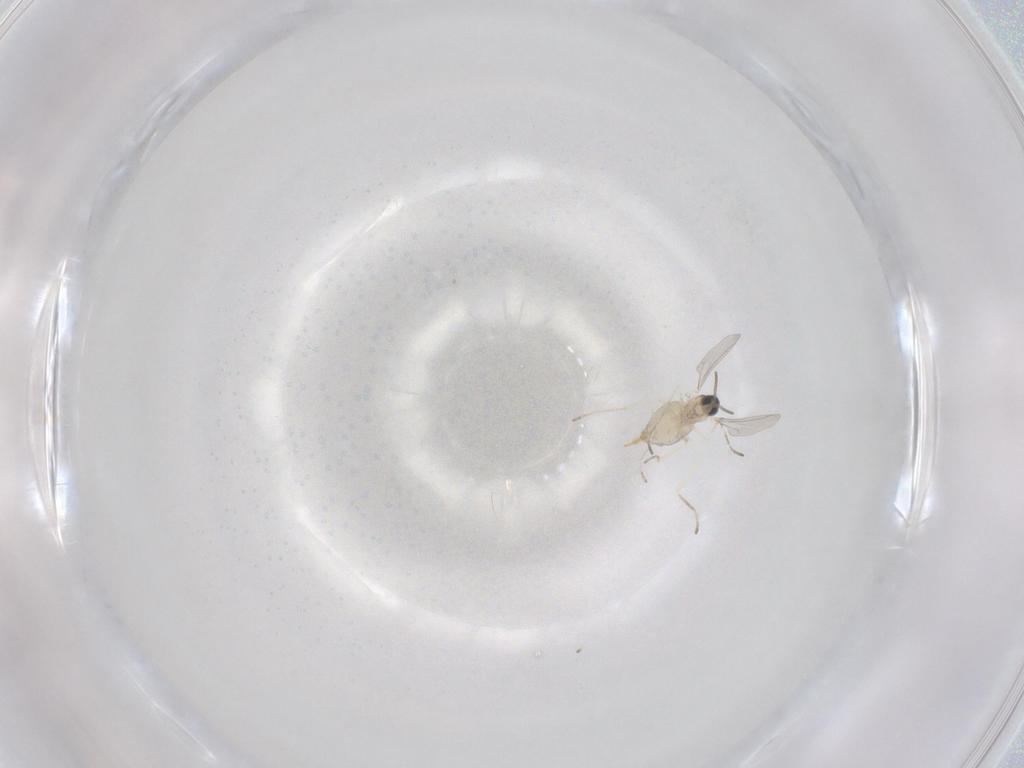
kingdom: Animalia
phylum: Arthropoda
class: Insecta
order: Diptera
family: Cecidomyiidae
